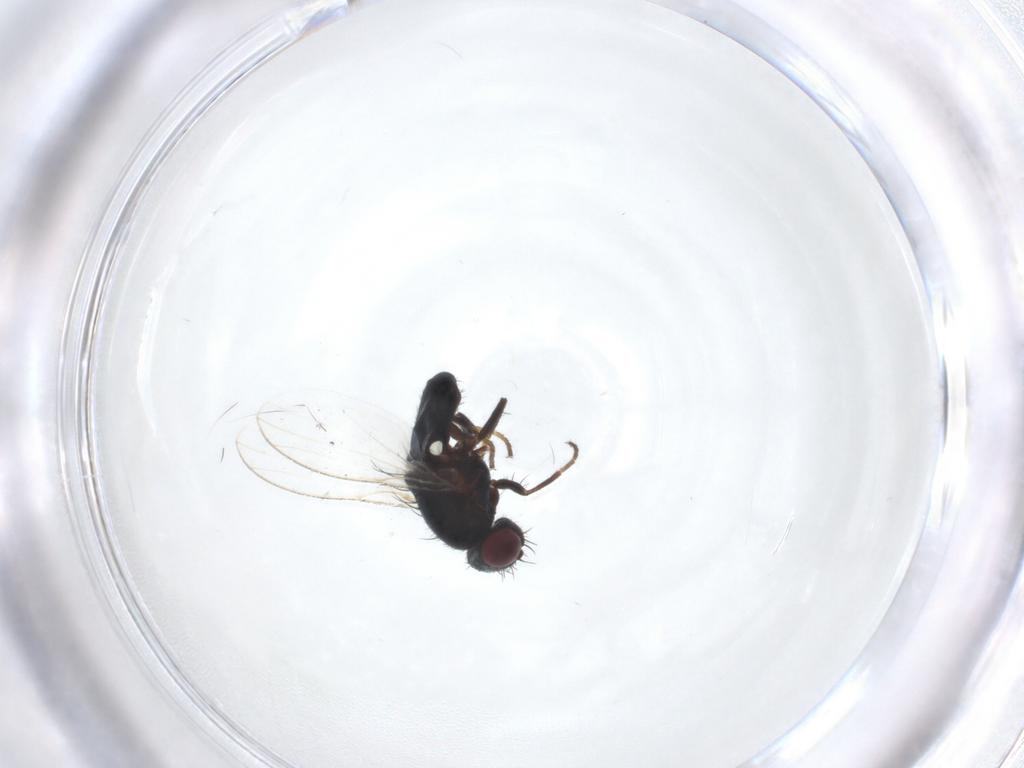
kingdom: Animalia
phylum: Arthropoda
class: Insecta
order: Diptera
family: Carnidae
